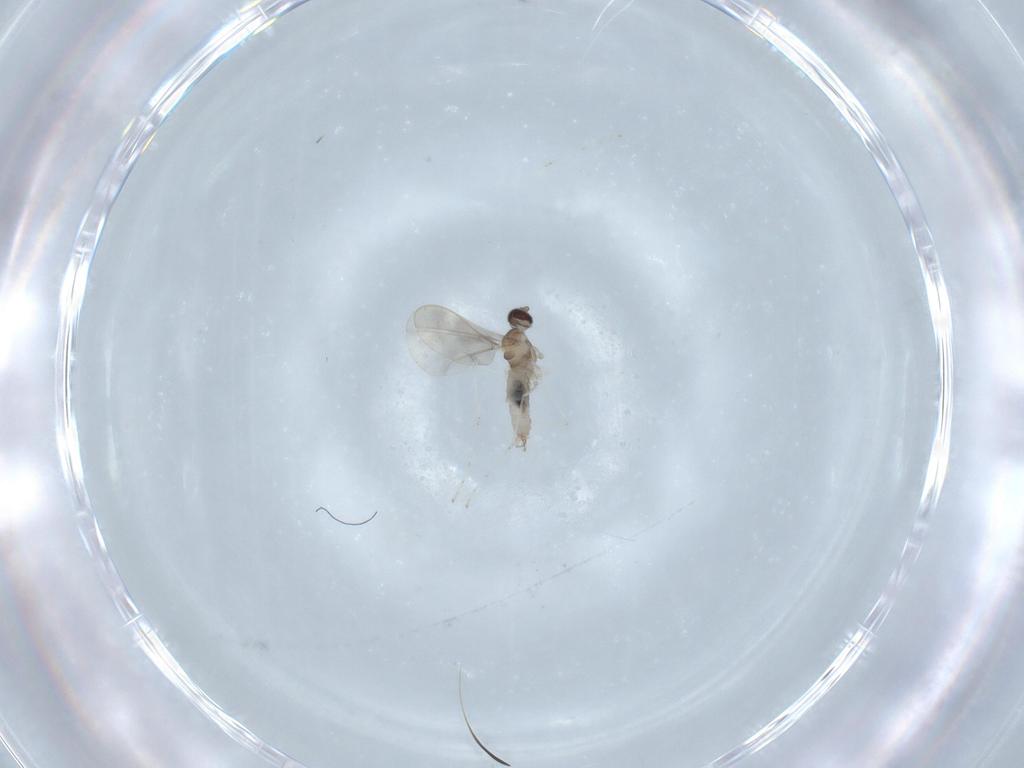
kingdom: Animalia
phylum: Arthropoda
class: Insecta
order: Diptera
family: Cecidomyiidae
